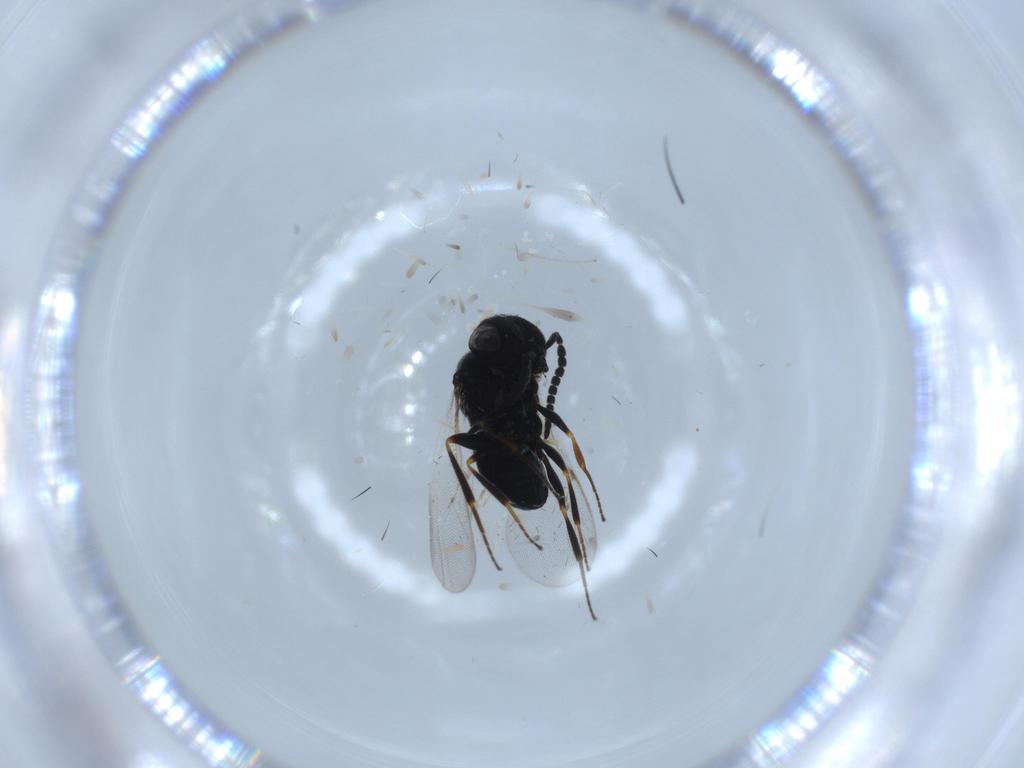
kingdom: Animalia
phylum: Arthropoda
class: Insecta
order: Hymenoptera
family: Scelionidae
